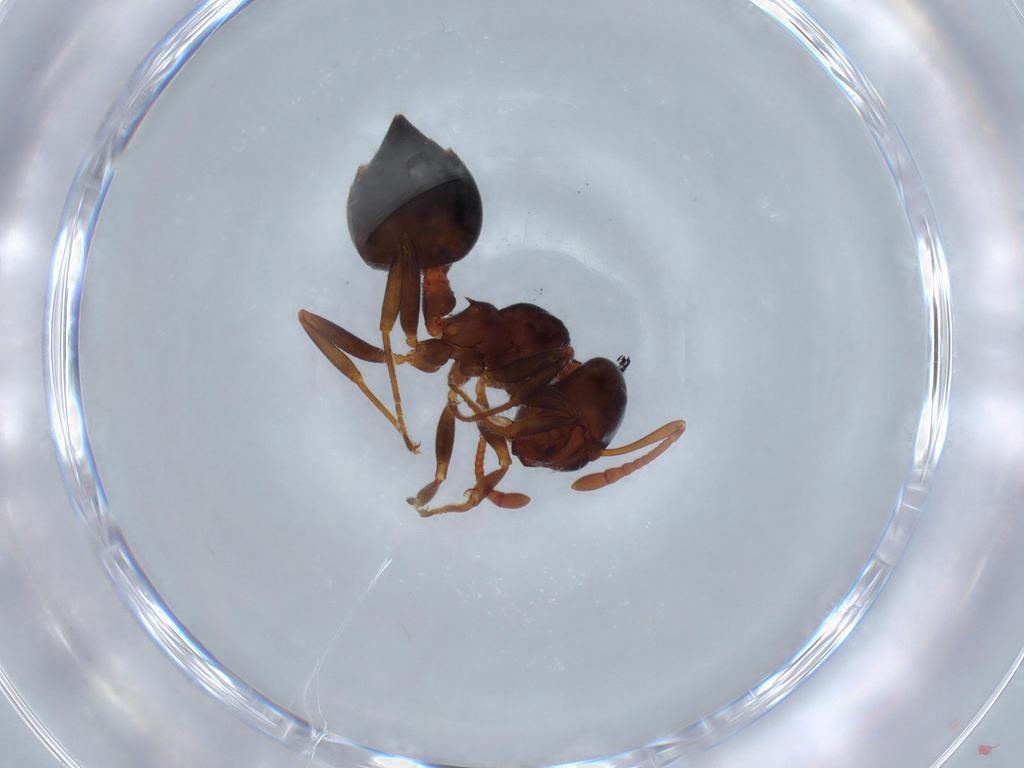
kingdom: Animalia
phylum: Arthropoda
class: Insecta
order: Hymenoptera
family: Formicidae
